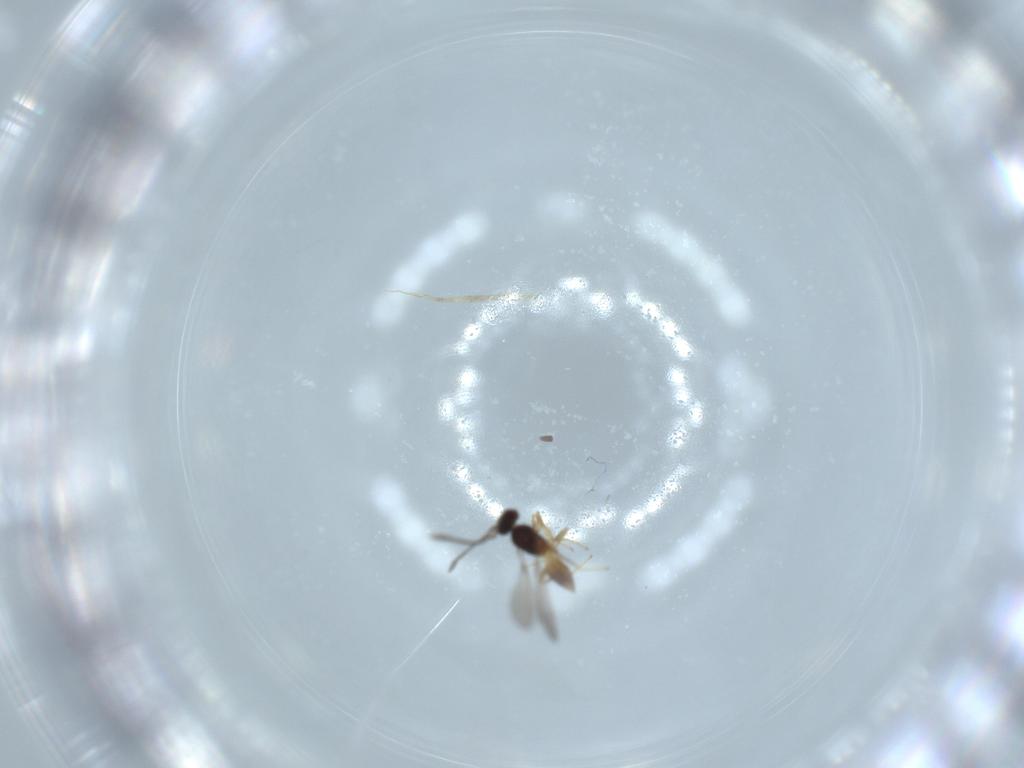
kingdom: Animalia
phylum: Arthropoda
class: Insecta
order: Hymenoptera
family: Mymaridae
